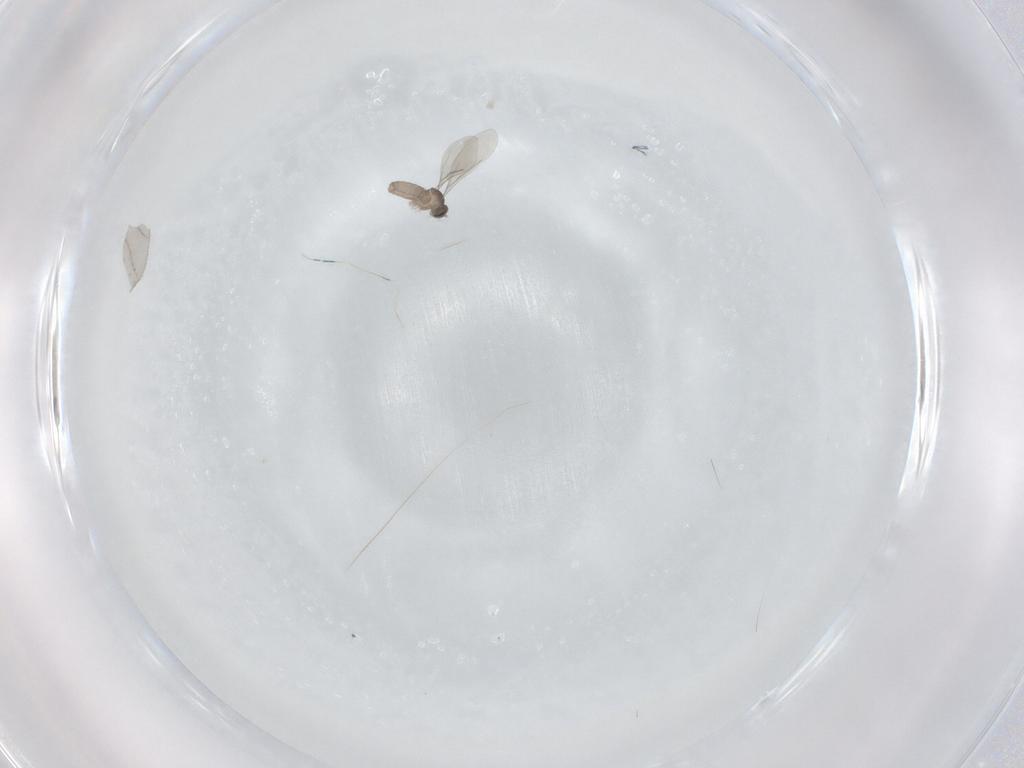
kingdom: Animalia
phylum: Arthropoda
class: Insecta
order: Diptera
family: Cecidomyiidae
